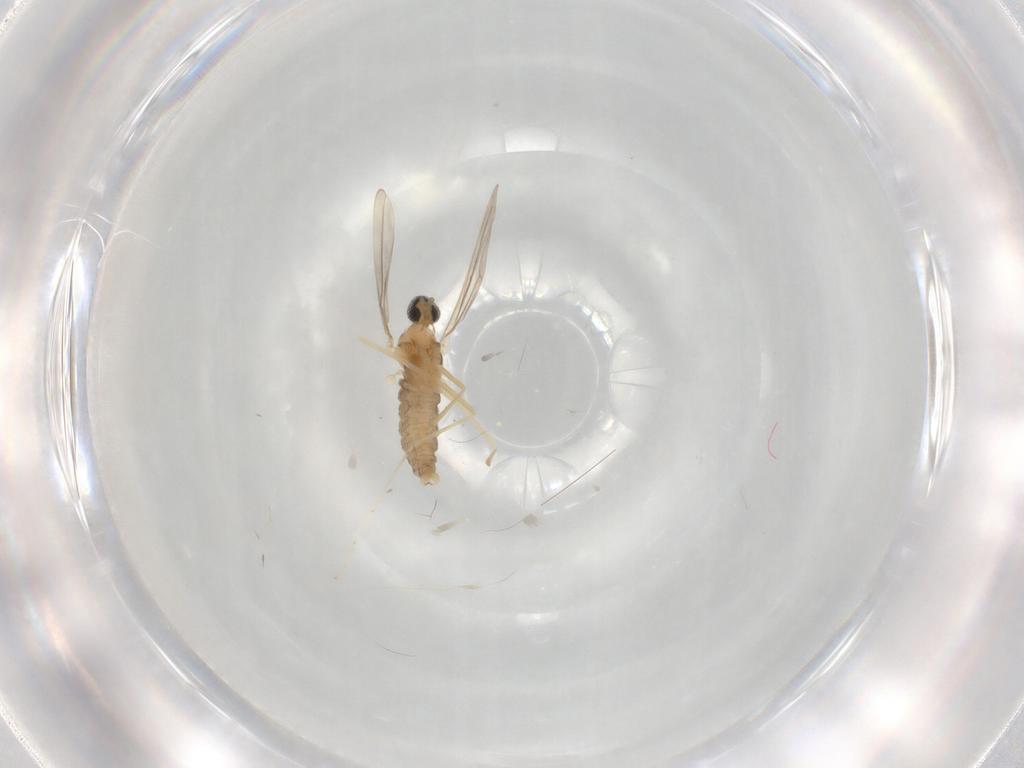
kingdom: Animalia
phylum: Arthropoda
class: Insecta
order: Diptera
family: Cecidomyiidae
